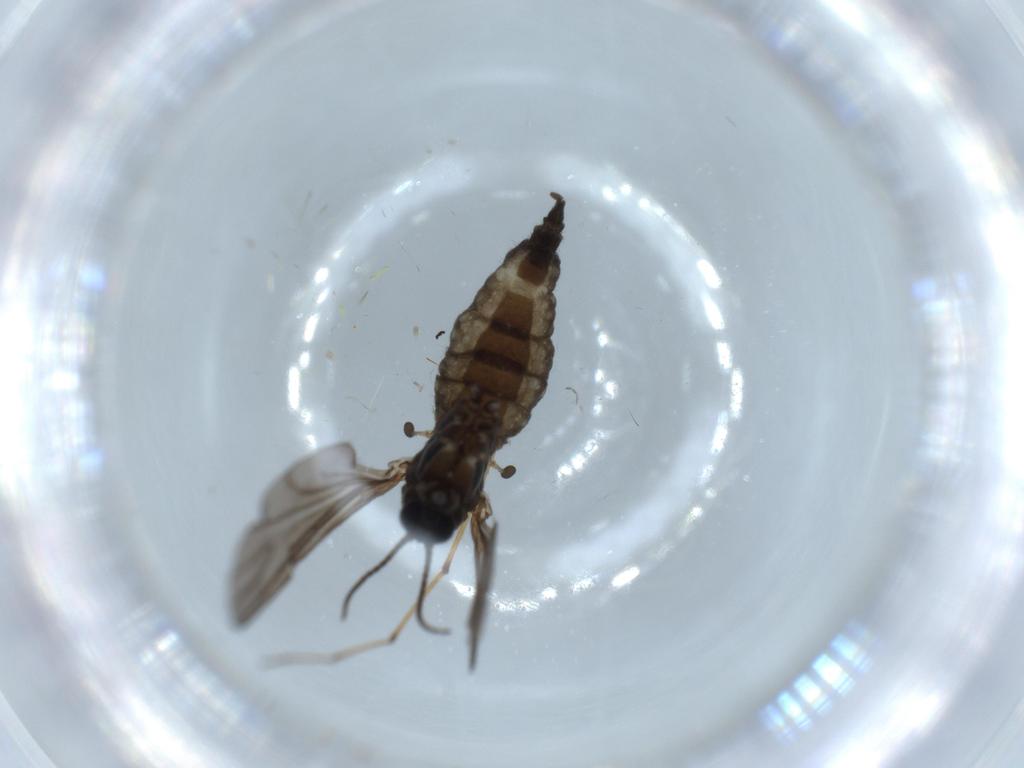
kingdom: Animalia
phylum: Arthropoda
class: Insecta
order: Diptera
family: Sciaridae
